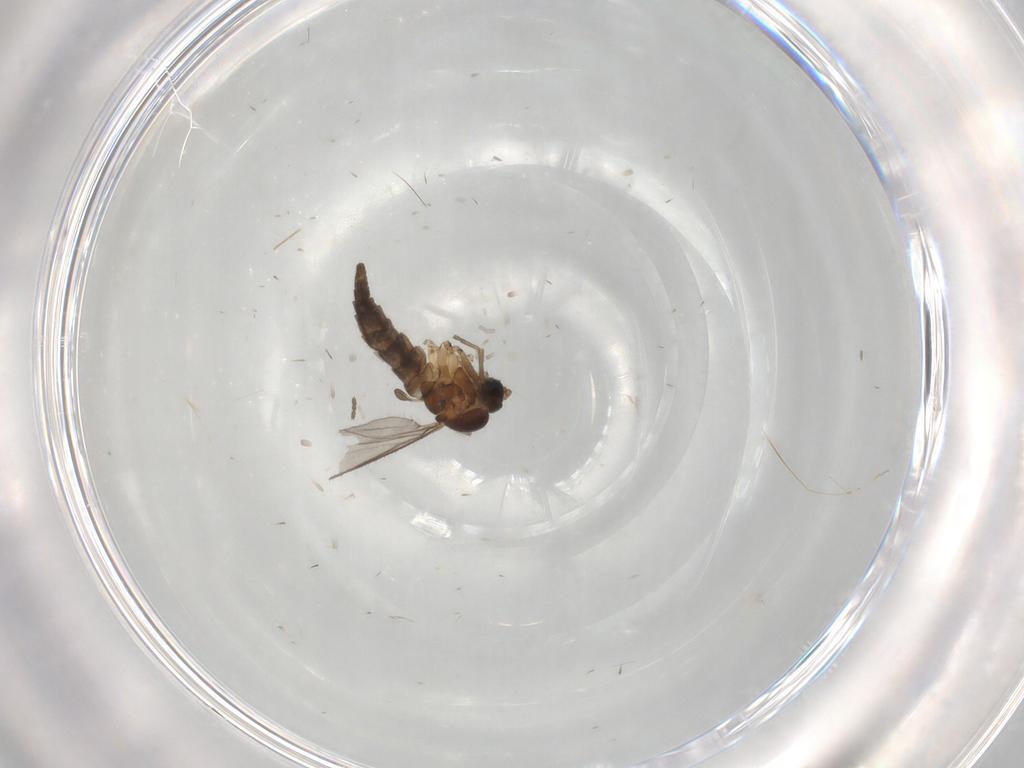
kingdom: Animalia
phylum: Arthropoda
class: Insecta
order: Diptera
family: Sciaridae
